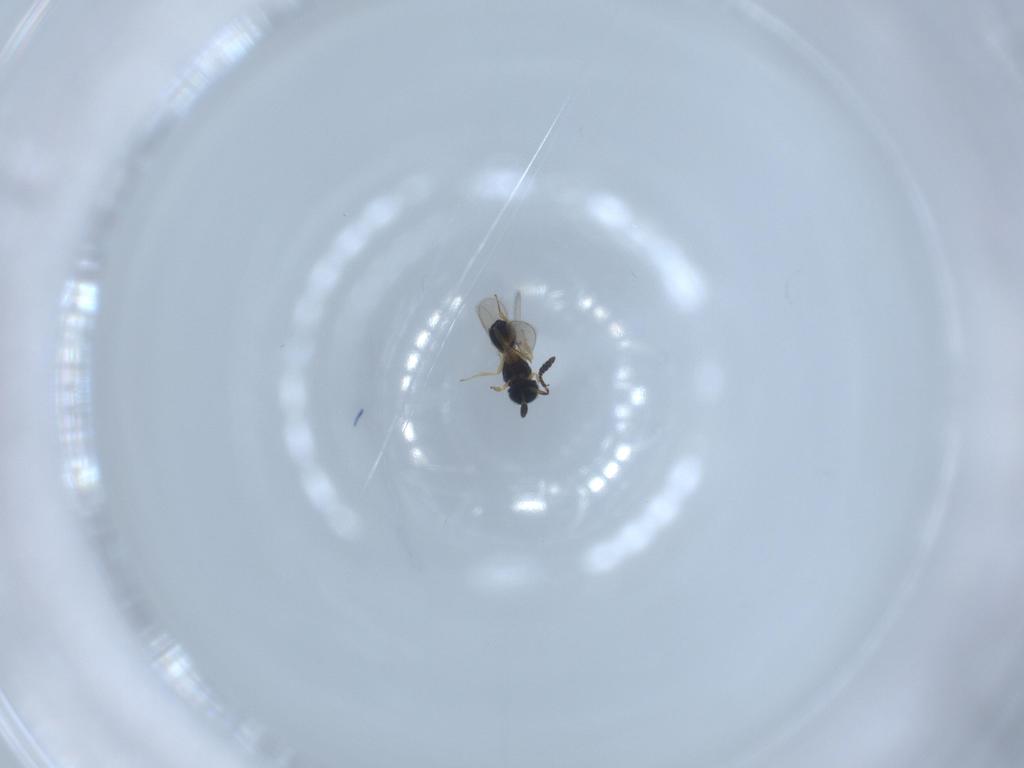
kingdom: Animalia
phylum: Arthropoda
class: Insecta
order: Hymenoptera
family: Scelionidae
